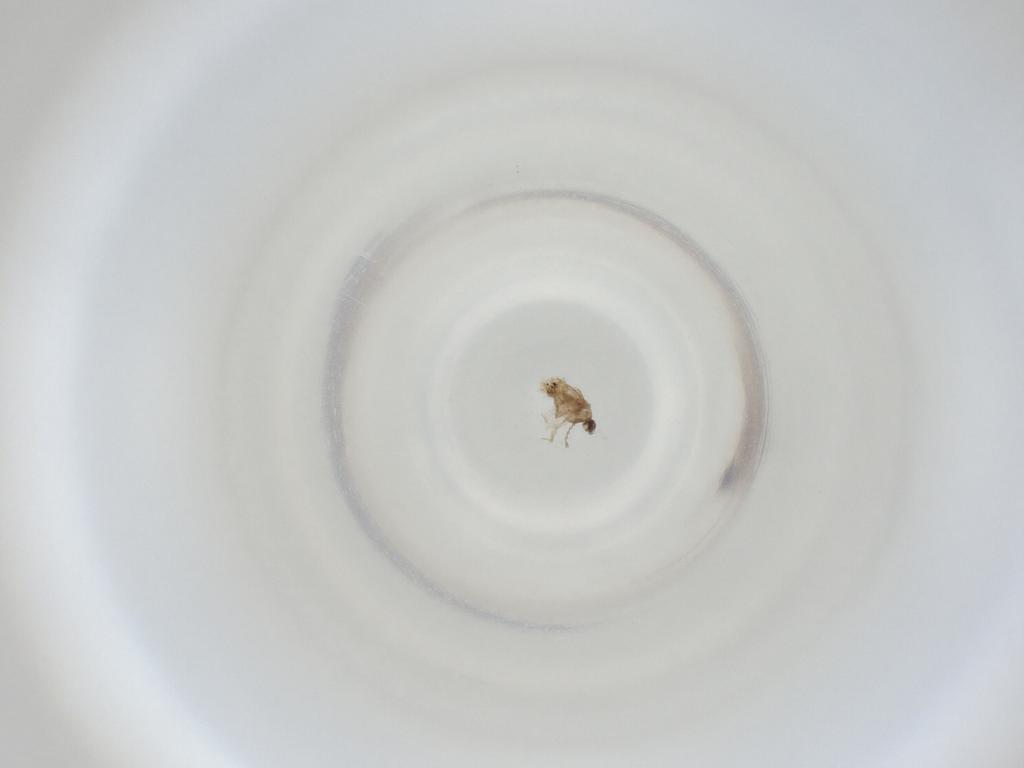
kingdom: Animalia
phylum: Arthropoda
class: Insecta
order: Diptera
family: Cecidomyiidae
